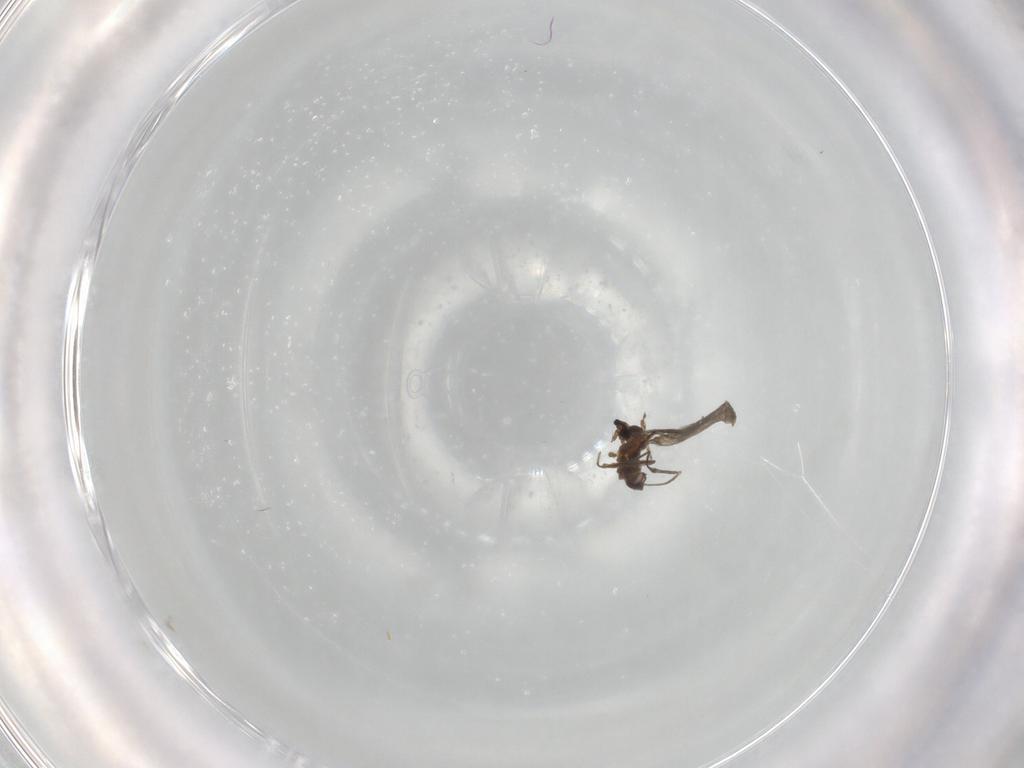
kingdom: Animalia
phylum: Arthropoda
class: Insecta
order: Diptera
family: Cecidomyiidae
